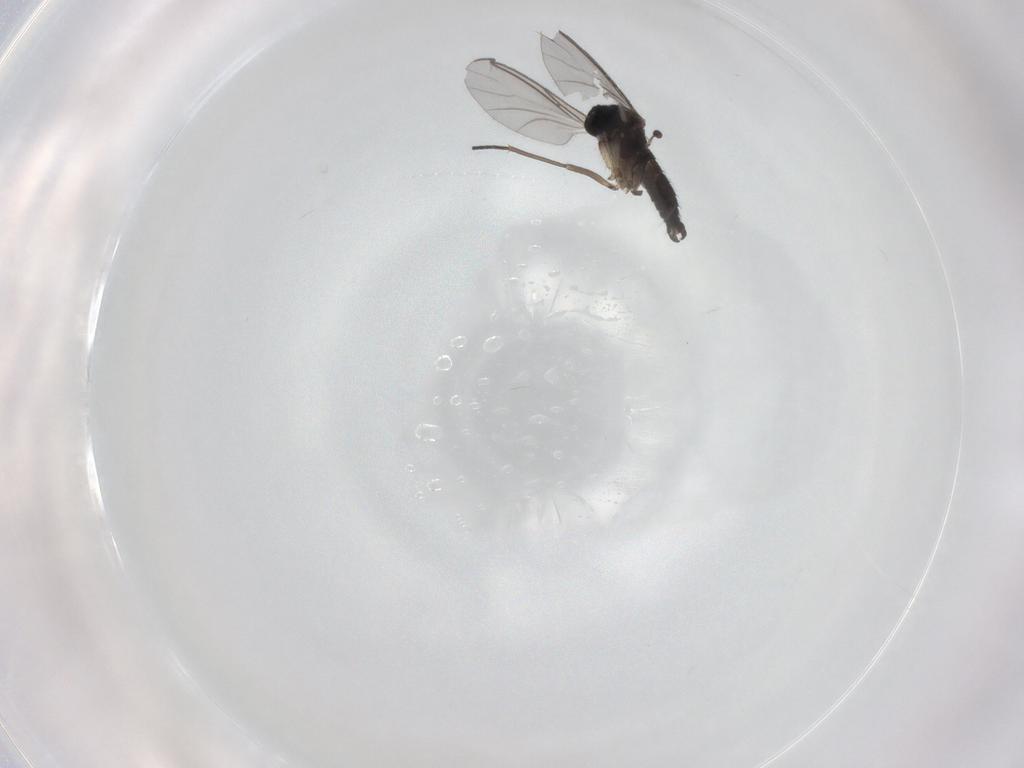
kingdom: Animalia
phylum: Arthropoda
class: Insecta
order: Diptera
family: Sciaridae
